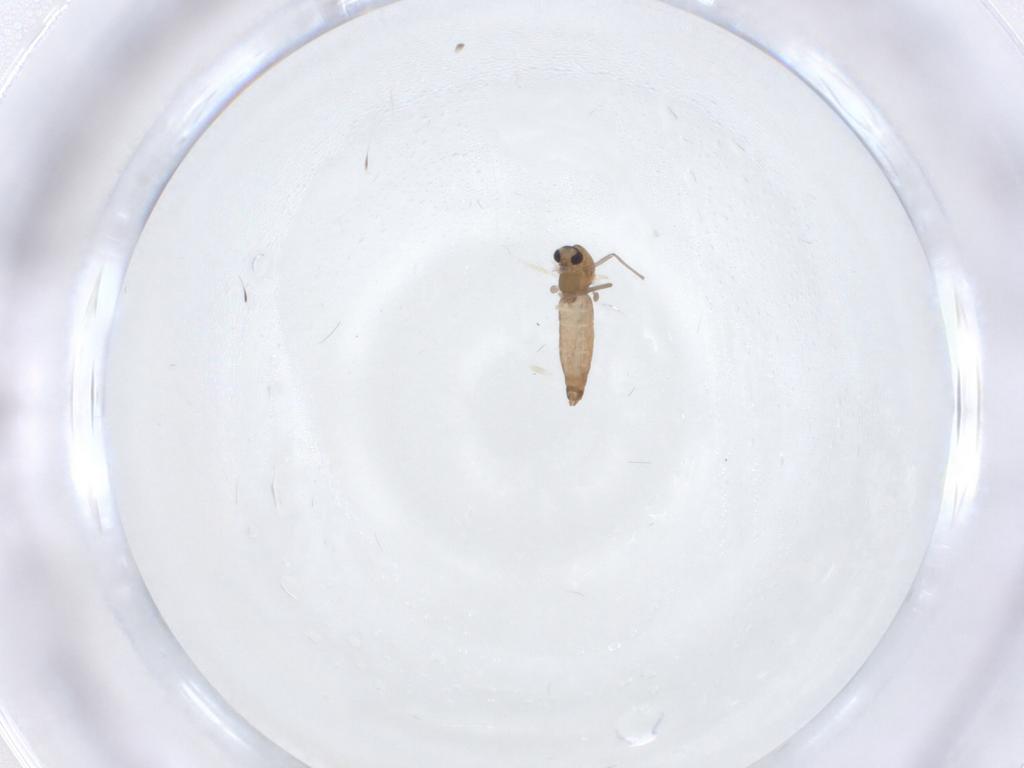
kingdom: Animalia
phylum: Arthropoda
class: Insecta
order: Diptera
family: Chironomidae
